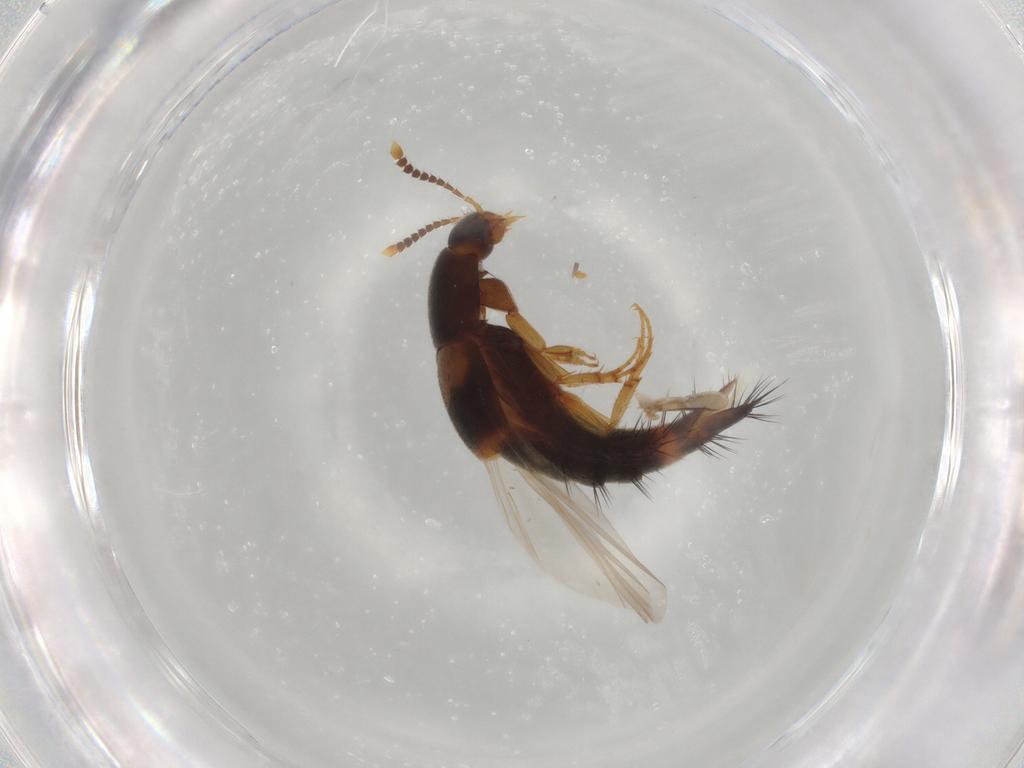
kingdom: Animalia
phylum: Arthropoda
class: Insecta
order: Coleoptera
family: Staphylinidae
